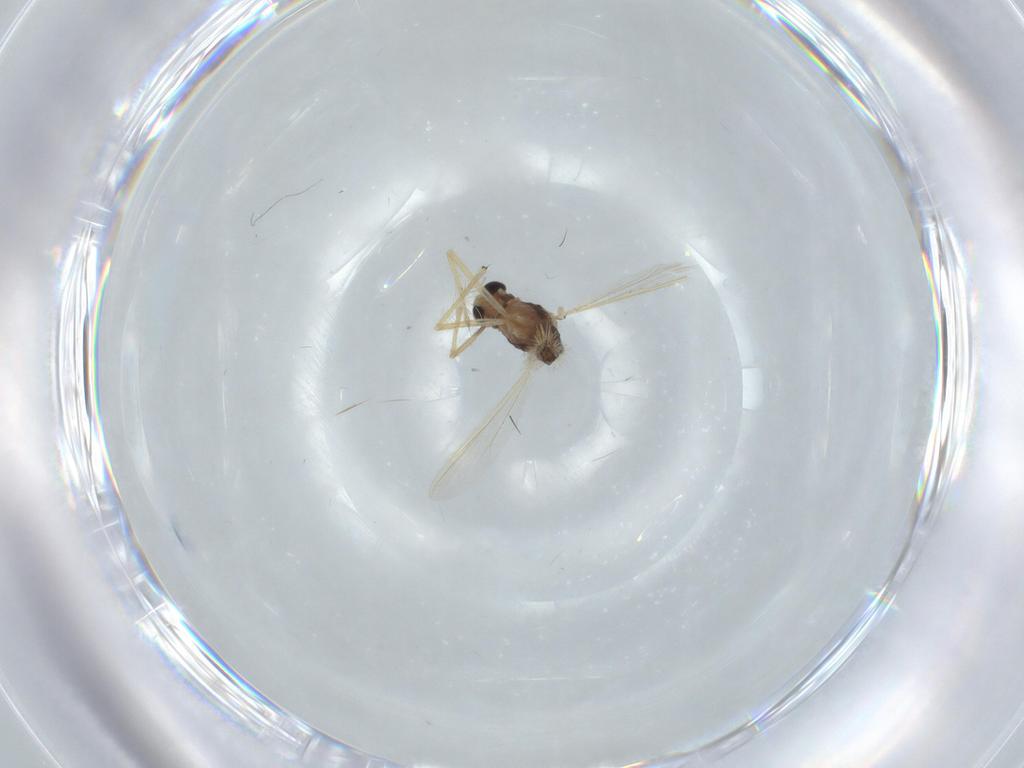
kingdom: Animalia
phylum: Arthropoda
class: Insecta
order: Diptera
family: Chironomidae
